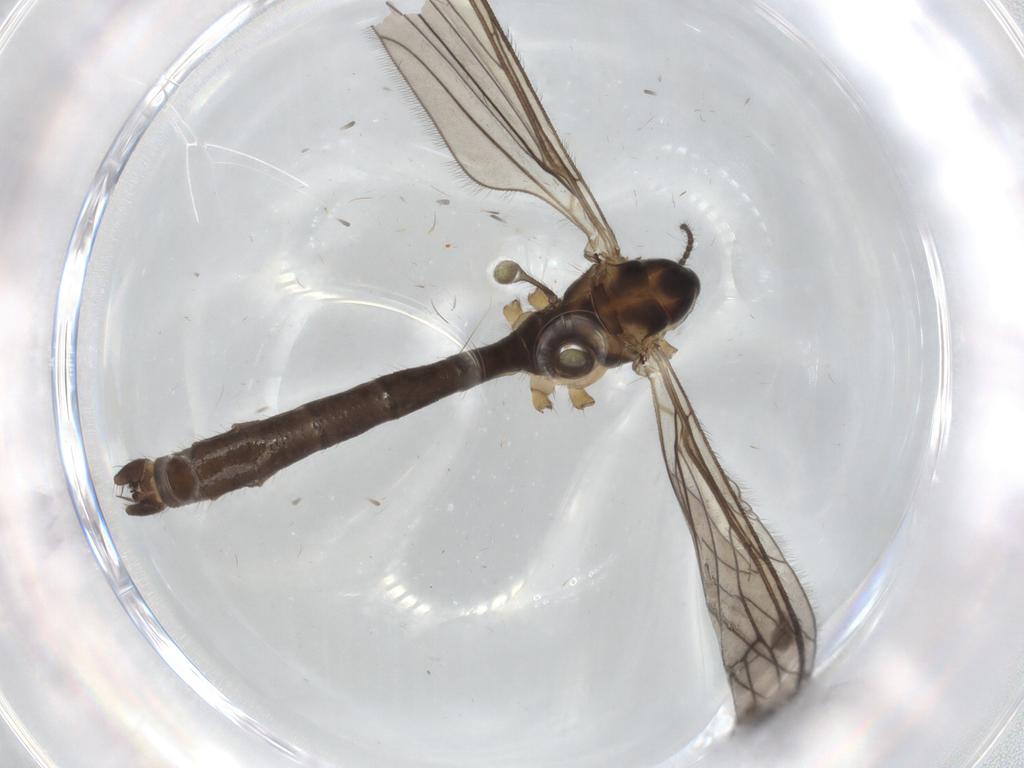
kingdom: Animalia
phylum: Arthropoda
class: Insecta
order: Diptera
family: Limoniidae
